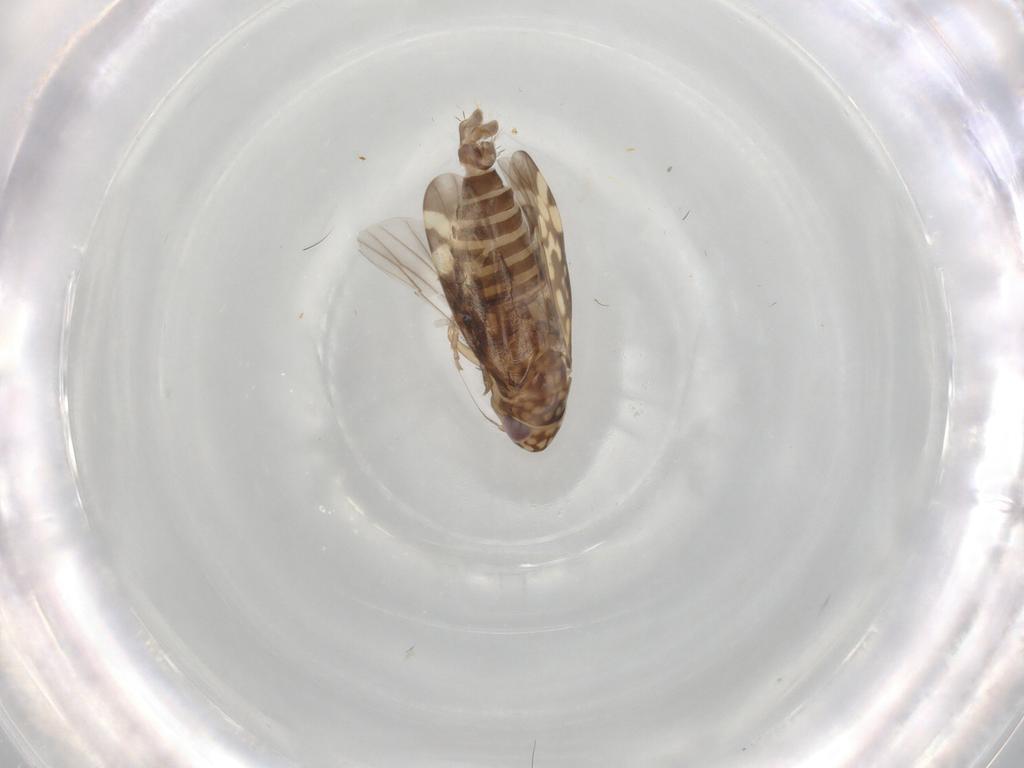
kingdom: Animalia
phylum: Arthropoda
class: Insecta
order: Hemiptera
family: Cicadellidae
